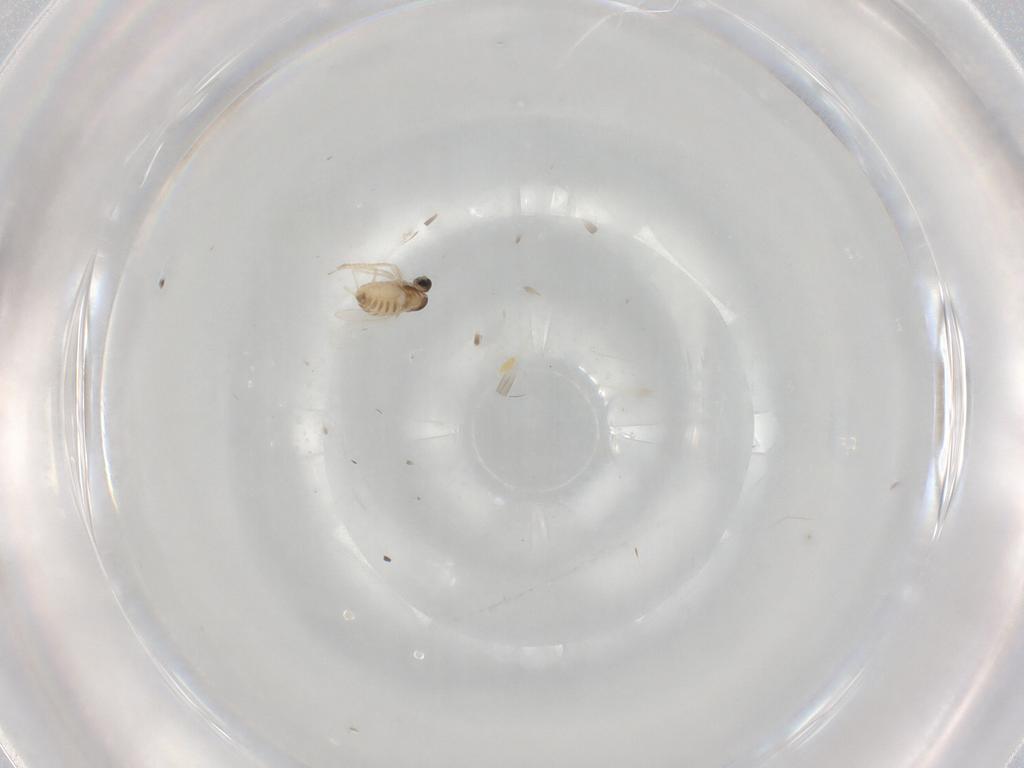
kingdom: Animalia
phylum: Arthropoda
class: Insecta
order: Diptera
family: Cecidomyiidae
